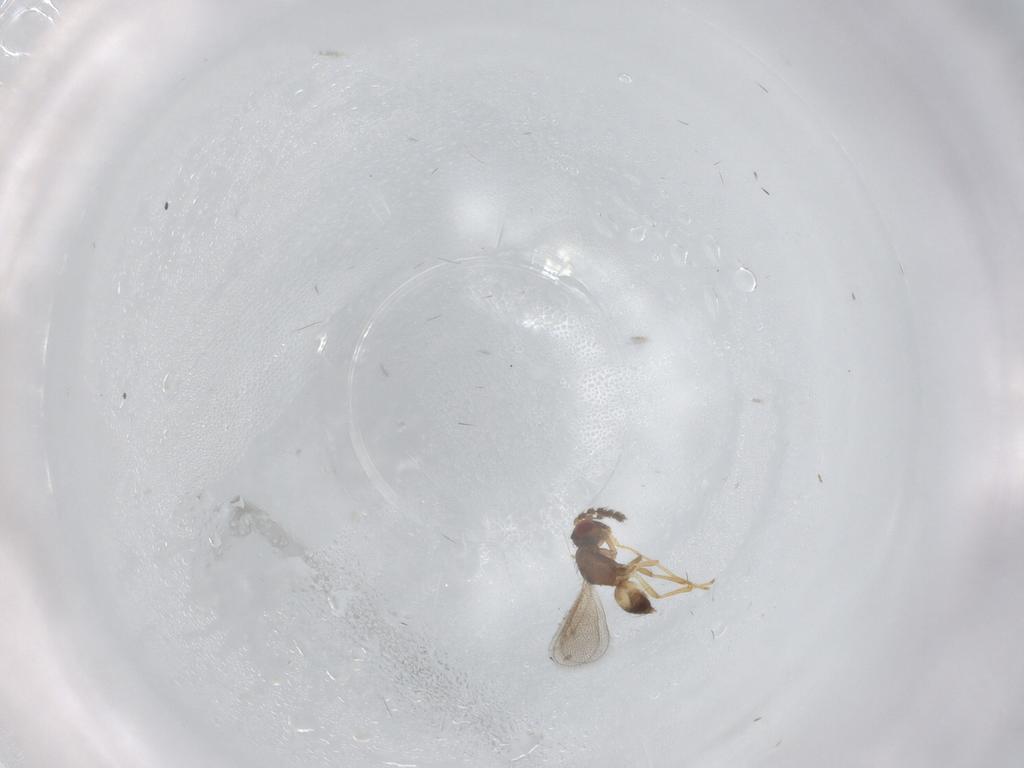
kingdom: Animalia
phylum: Arthropoda
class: Insecta
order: Hymenoptera
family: Eulophidae
